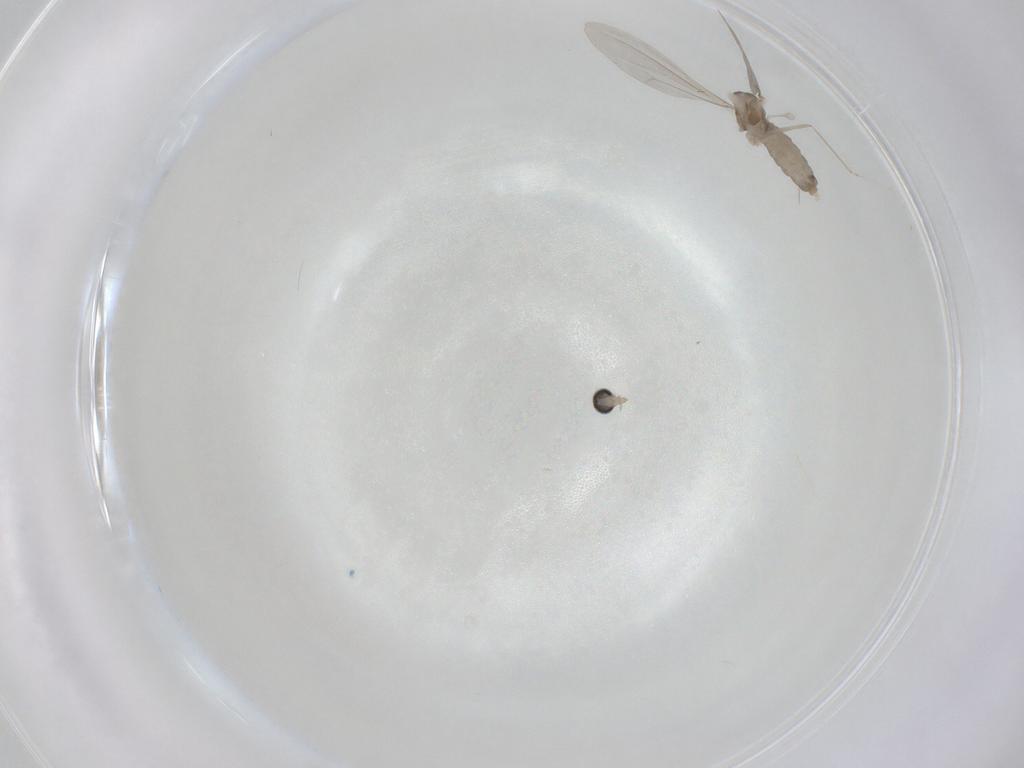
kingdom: Animalia
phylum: Arthropoda
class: Insecta
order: Diptera
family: Cecidomyiidae
